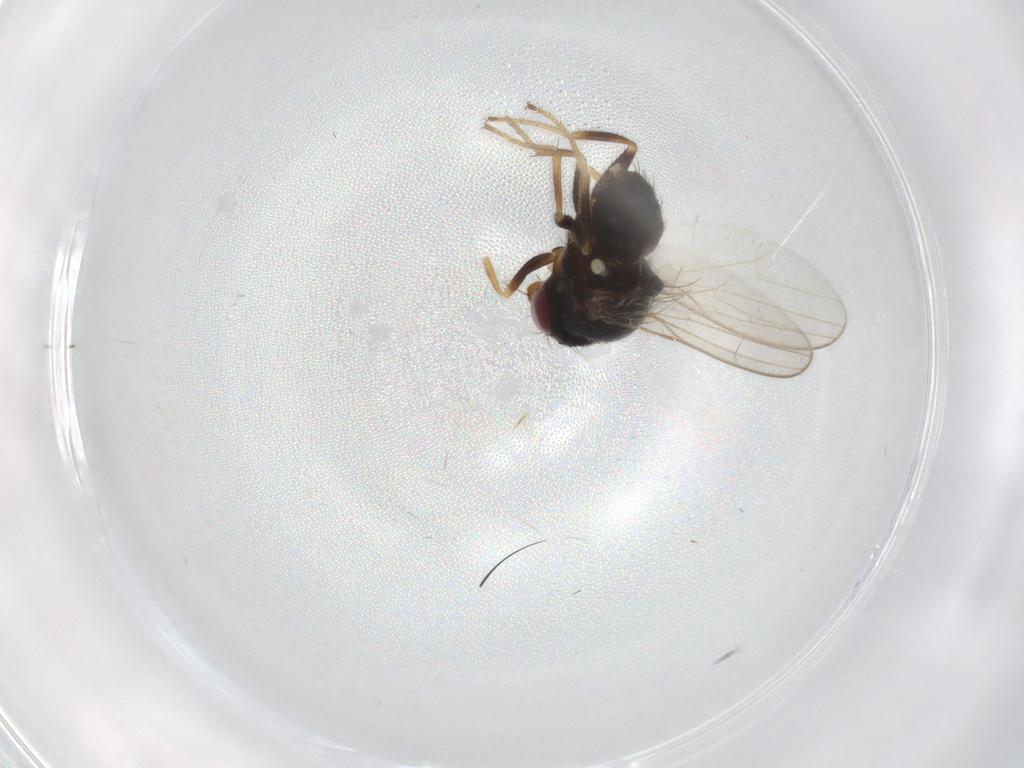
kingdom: Animalia
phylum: Arthropoda
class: Insecta
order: Diptera
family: Milichiidae
